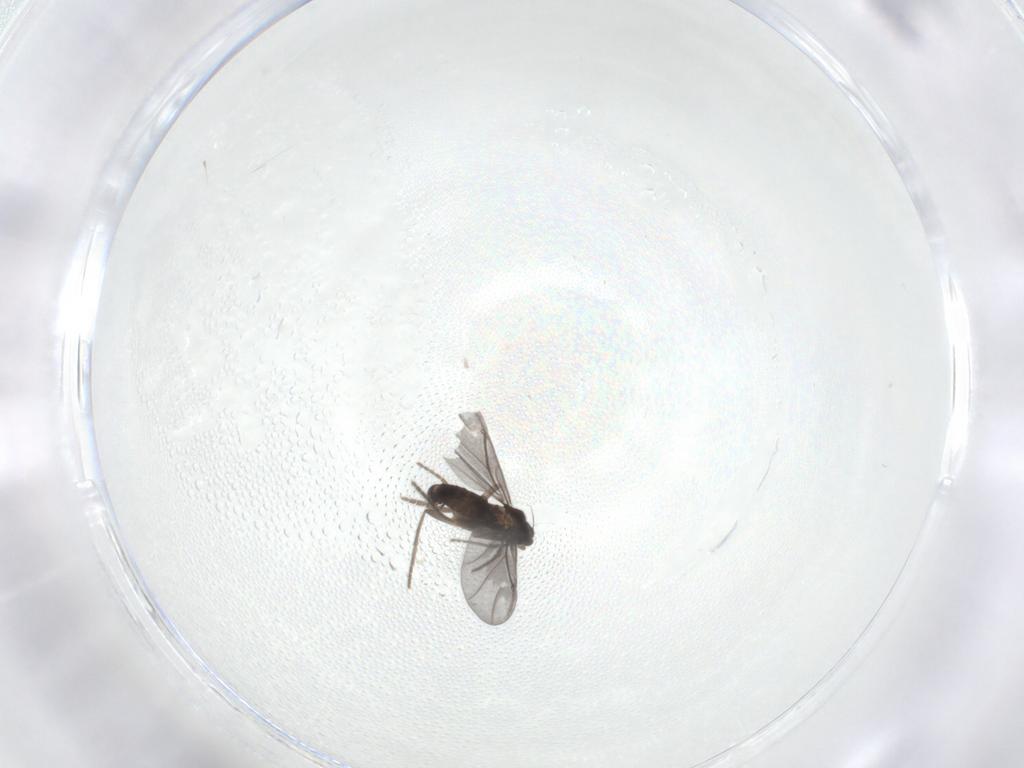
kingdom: Animalia
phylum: Arthropoda
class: Insecta
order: Diptera
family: Phoridae
